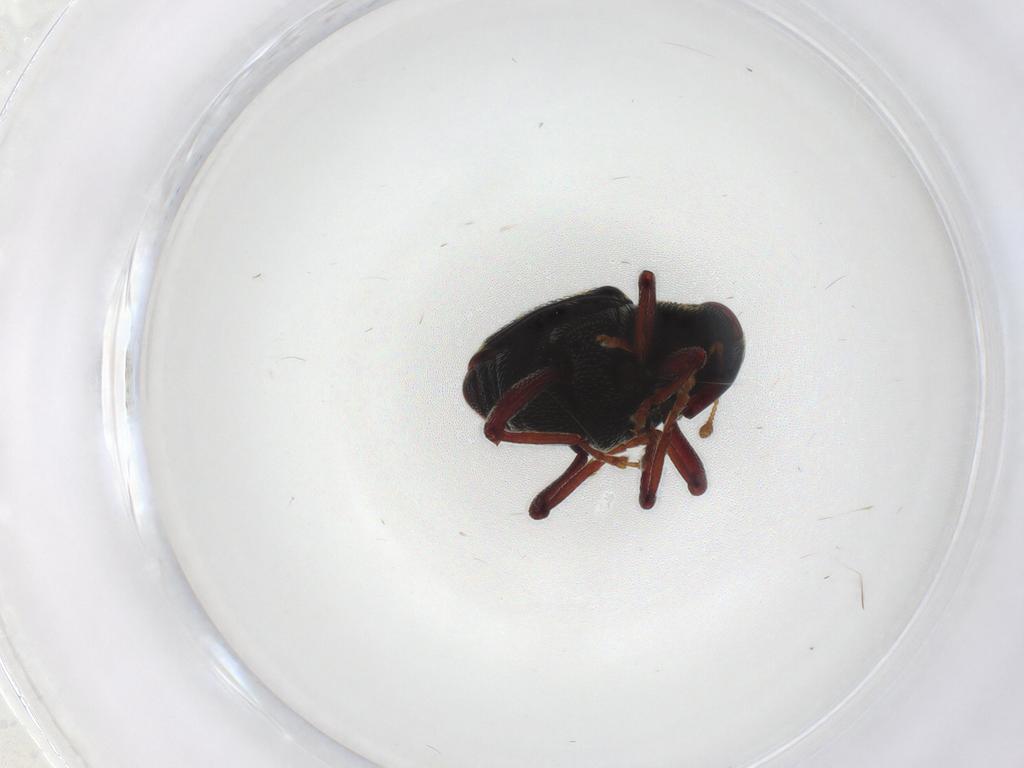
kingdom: Animalia
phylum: Arthropoda
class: Insecta
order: Coleoptera
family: Curculionidae
